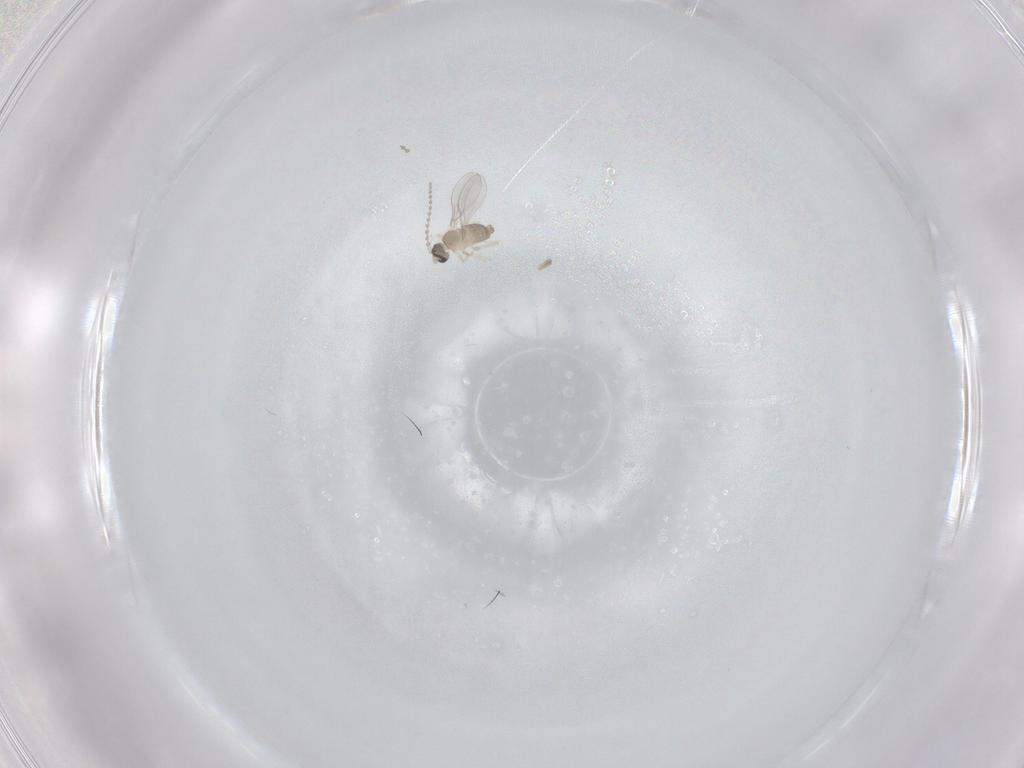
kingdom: Animalia
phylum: Arthropoda
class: Insecta
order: Diptera
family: Cecidomyiidae
